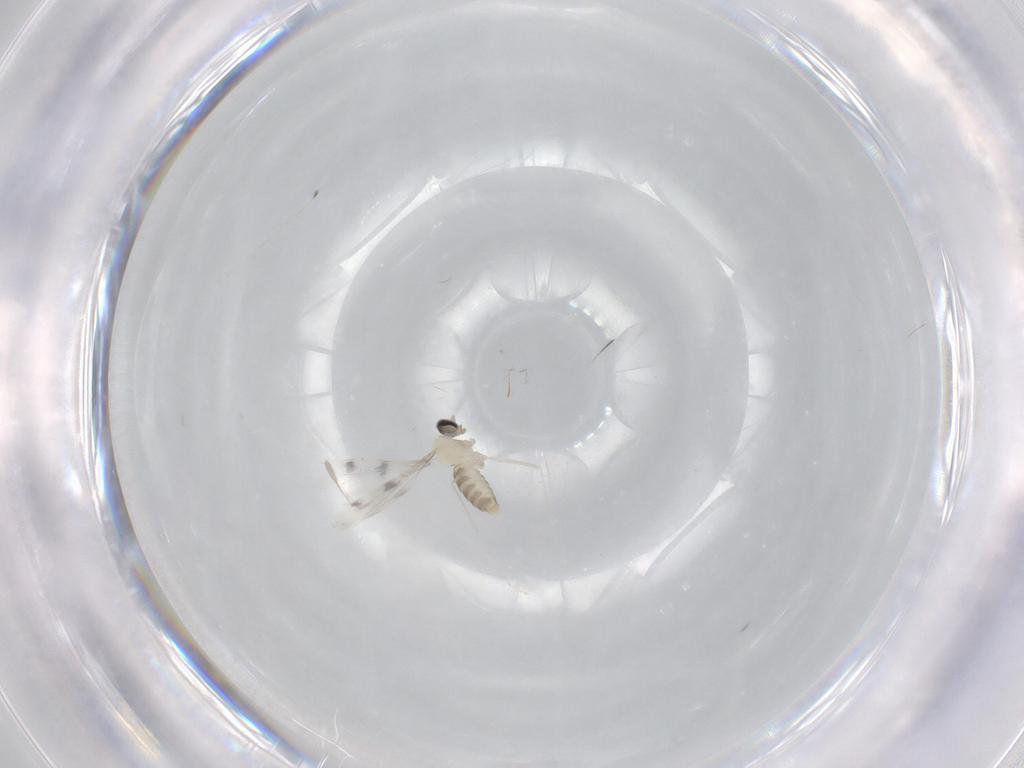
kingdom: Animalia
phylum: Arthropoda
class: Insecta
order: Diptera
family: Cecidomyiidae
